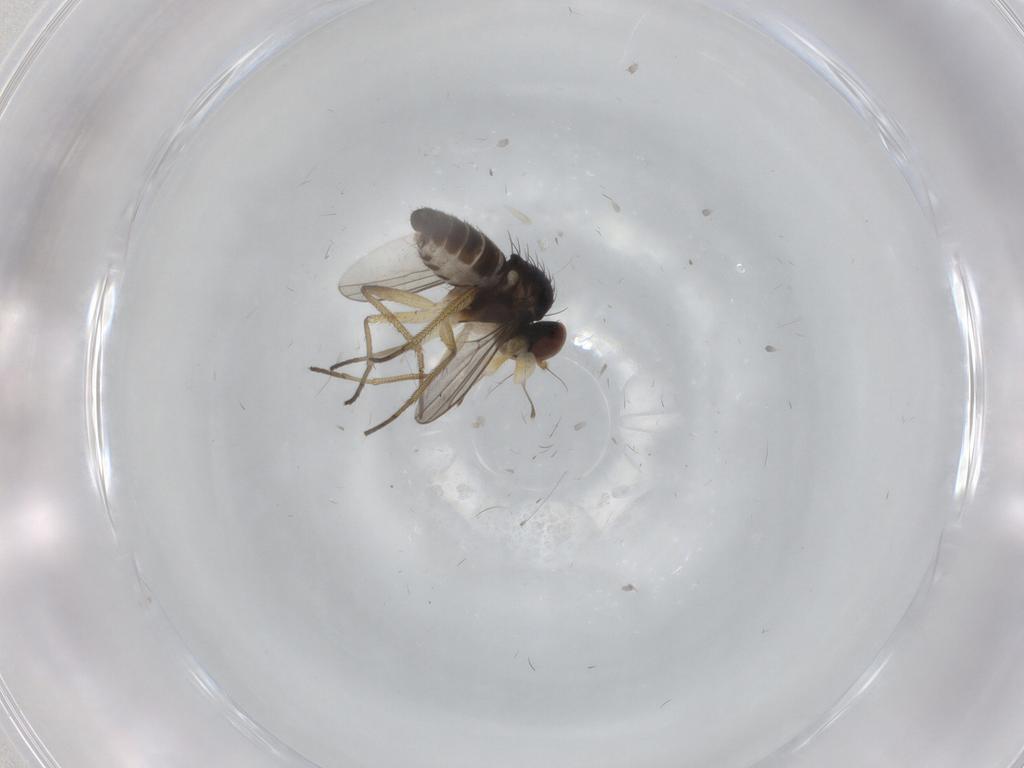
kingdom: Animalia
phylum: Arthropoda
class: Insecta
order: Diptera
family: Dolichopodidae
